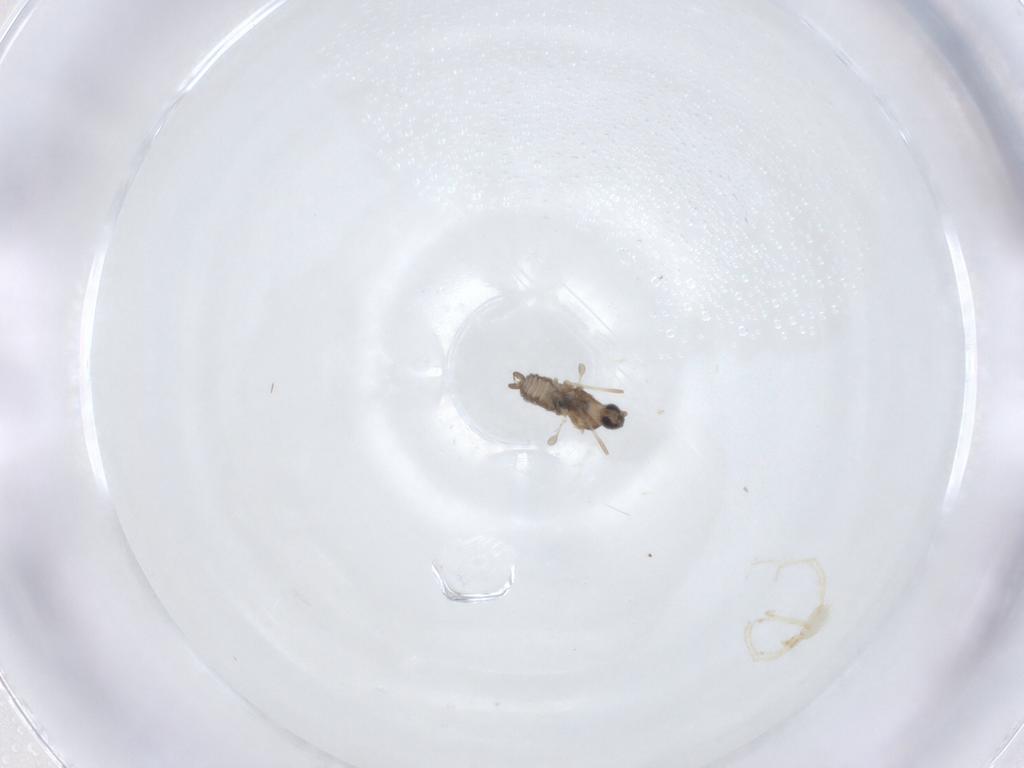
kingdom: Animalia
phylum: Arthropoda
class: Insecta
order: Diptera
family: Cecidomyiidae
